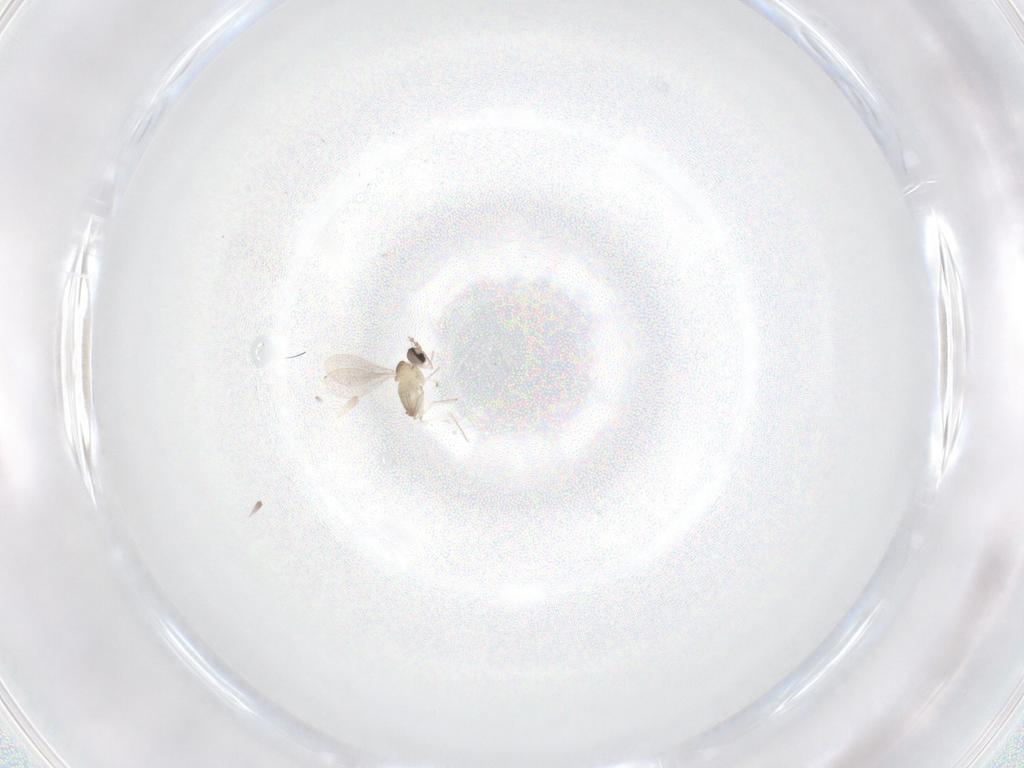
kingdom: Animalia
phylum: Arthropoda
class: Insecta
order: Diptera
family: Cecidomyiidae
